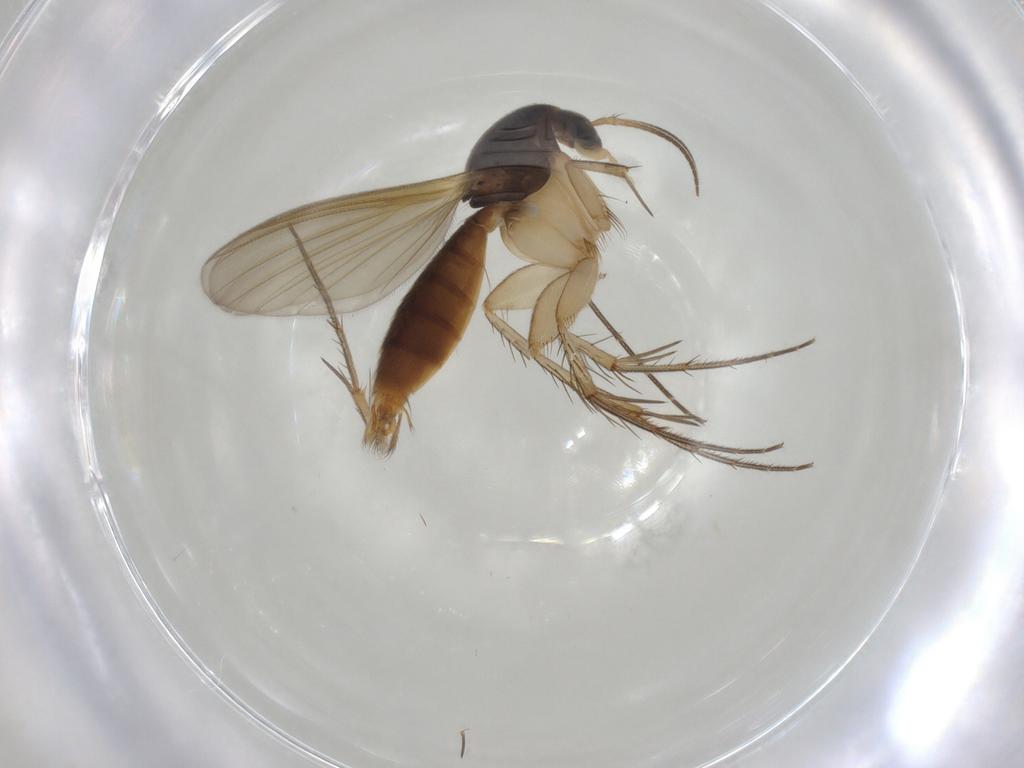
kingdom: Animalia
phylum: Arthropoda
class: Insecta
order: Diptera
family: Mycetophilidae
